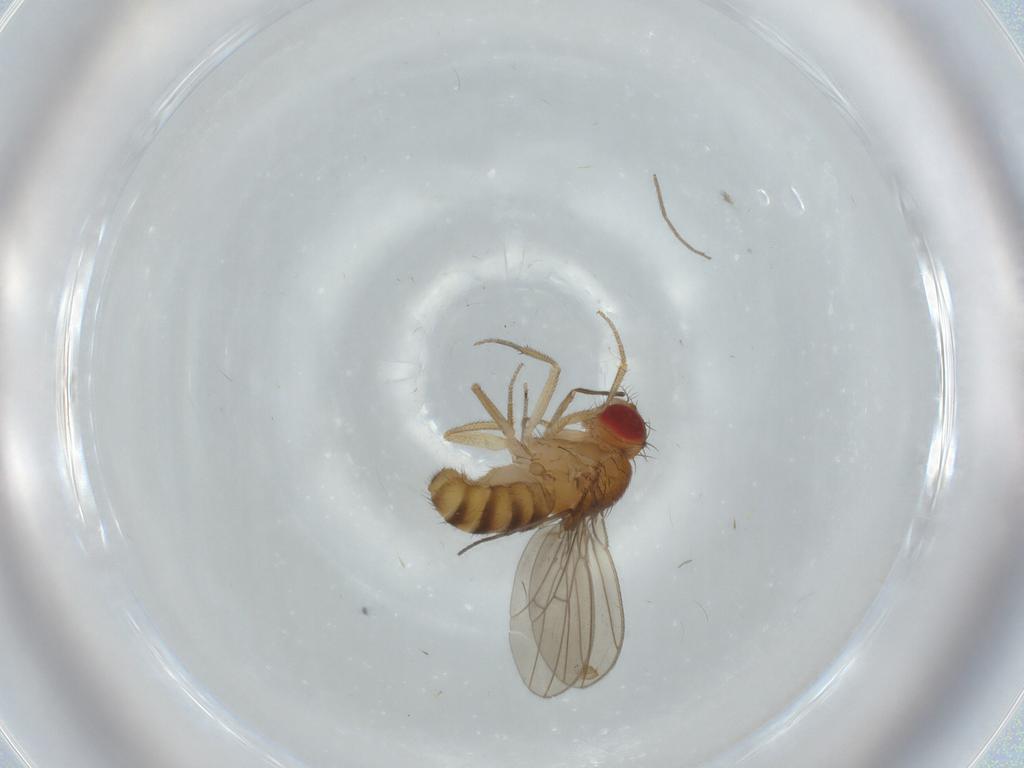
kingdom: Animalia
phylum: Arthropoda
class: Insecta
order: Diptera
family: Drosophilidae
